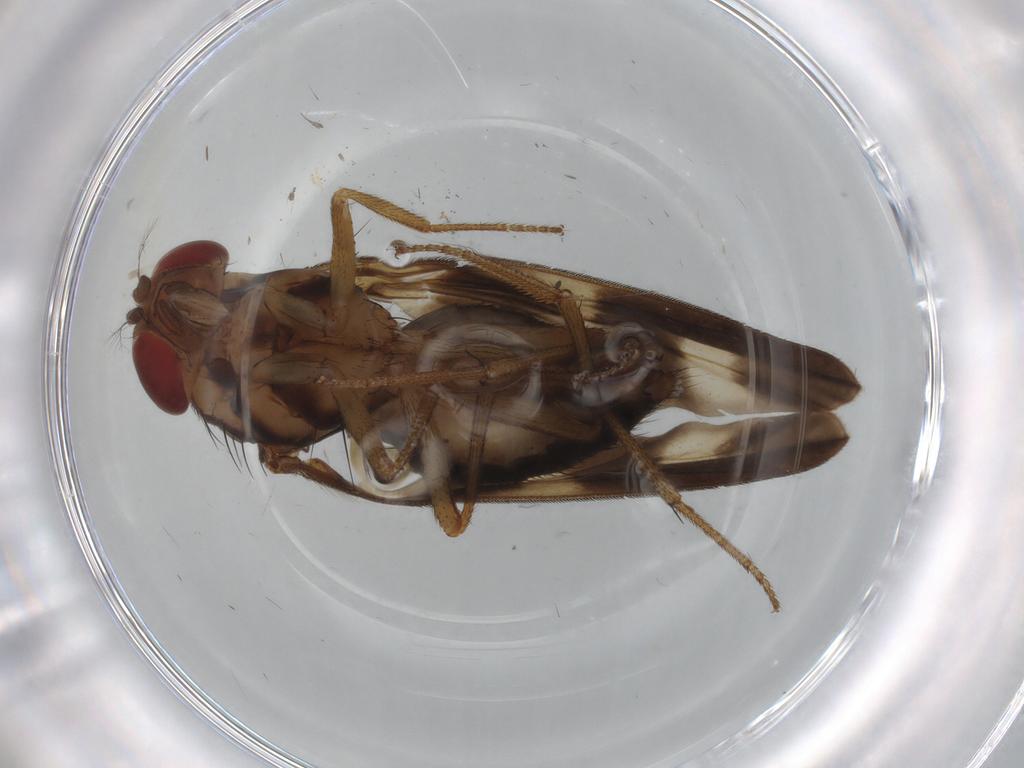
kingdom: Animalia
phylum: Arthropoda
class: Insecta
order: Diptera
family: Drosophilidae
